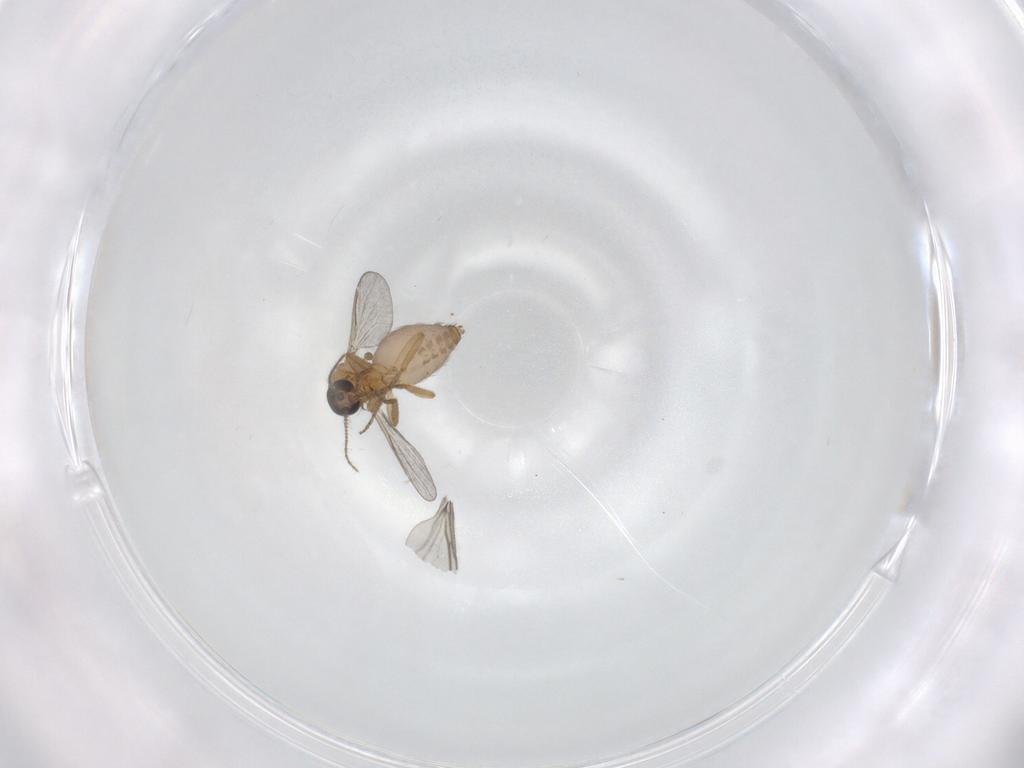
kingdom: Animalia
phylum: Arthropoda
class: Insecta
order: Diptera
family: Ceratopogonidae
